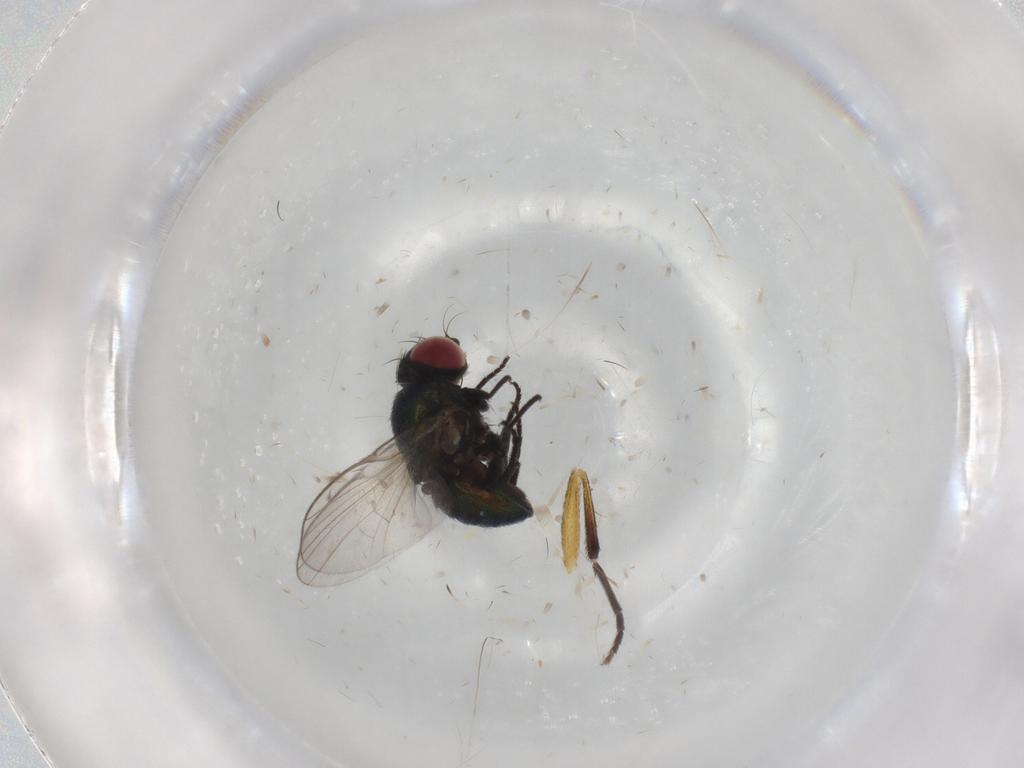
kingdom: Animalia
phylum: Arthropoda
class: Insecta
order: Diptera
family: Agromyzidae
